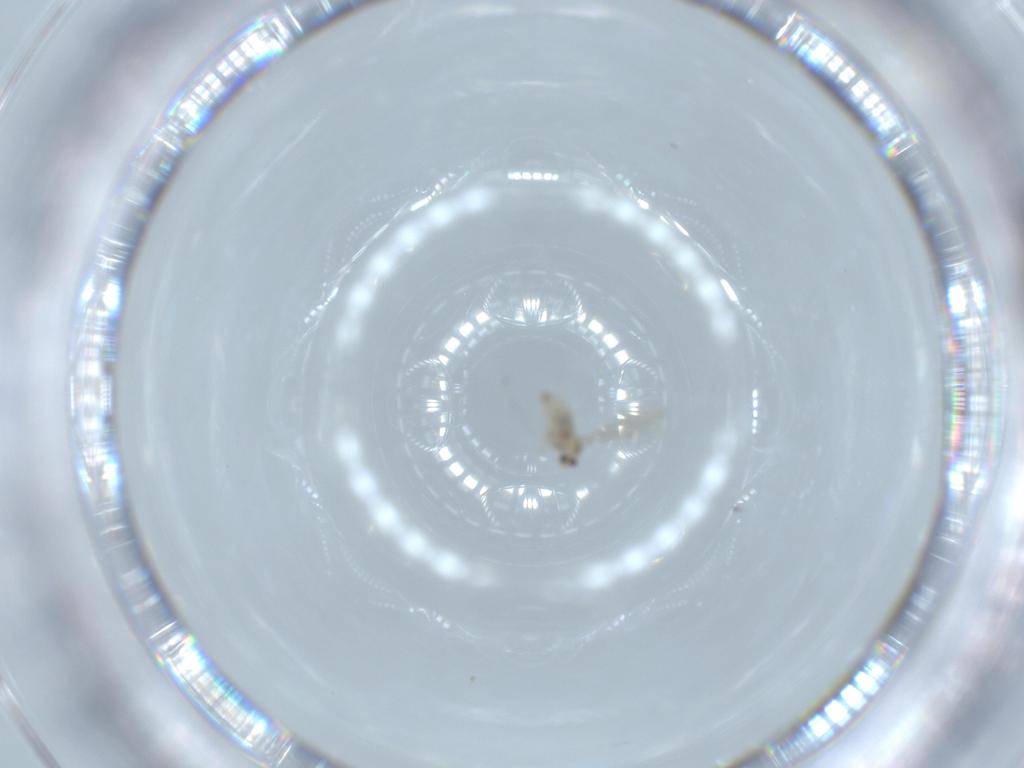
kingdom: Animalia
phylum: Arthropoda
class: Insecta
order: Diptera
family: Cecidomyiidae
